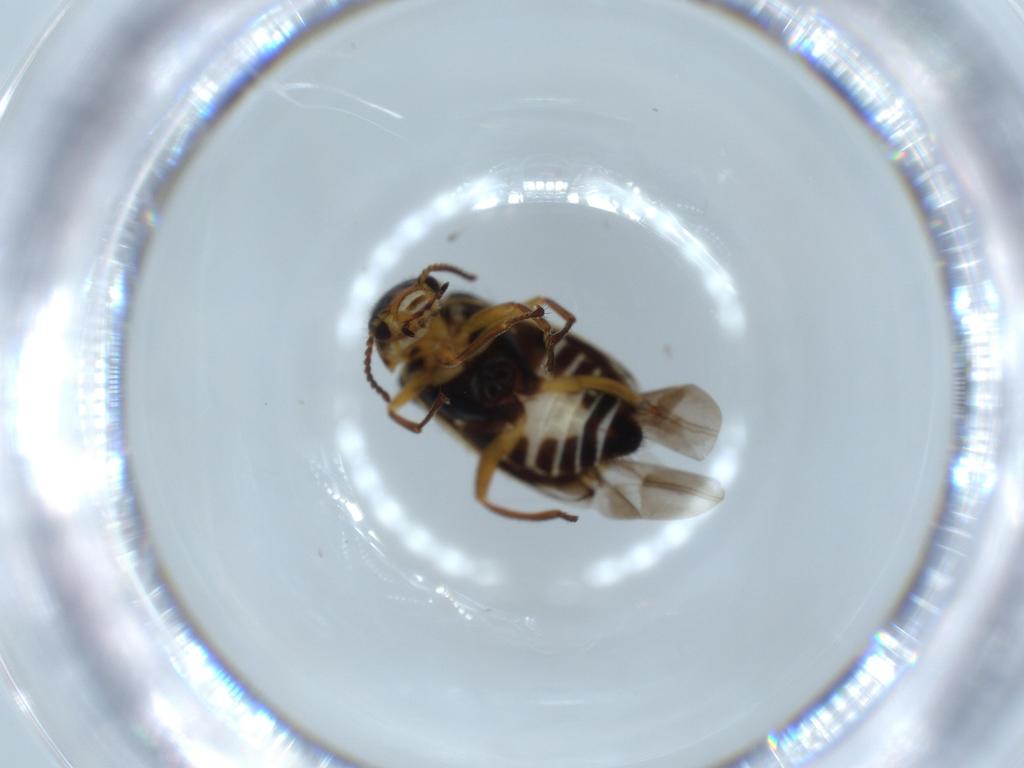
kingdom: Animalia
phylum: Arthropoda
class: Insecta
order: Coleoptera
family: Melyridae
